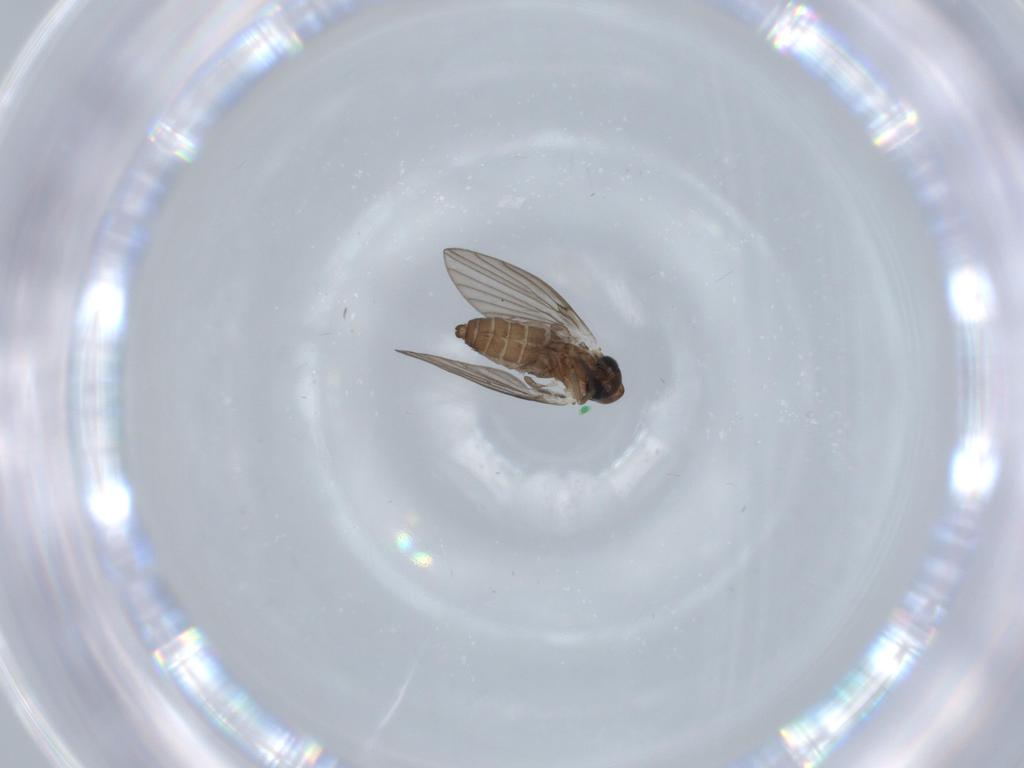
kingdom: Animalia
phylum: Arthropoda
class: Insecta
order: Diptera
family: Psychodidae
